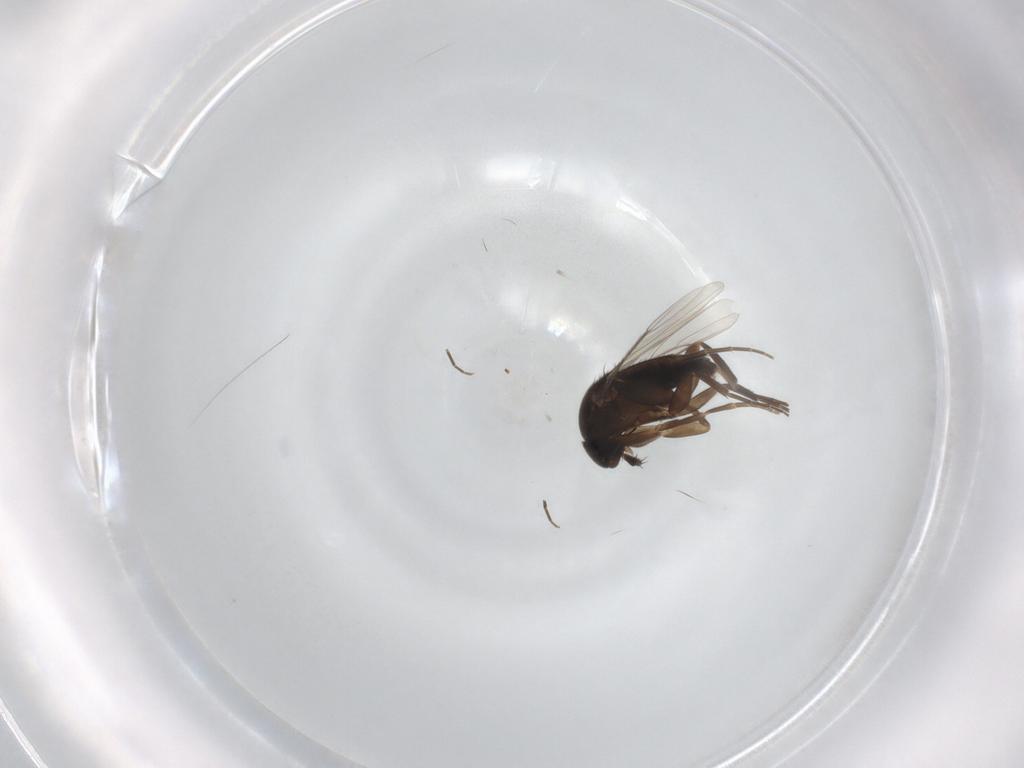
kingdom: Animalia
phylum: Arthropoda
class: Insecta
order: Diptera
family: Phoridae
